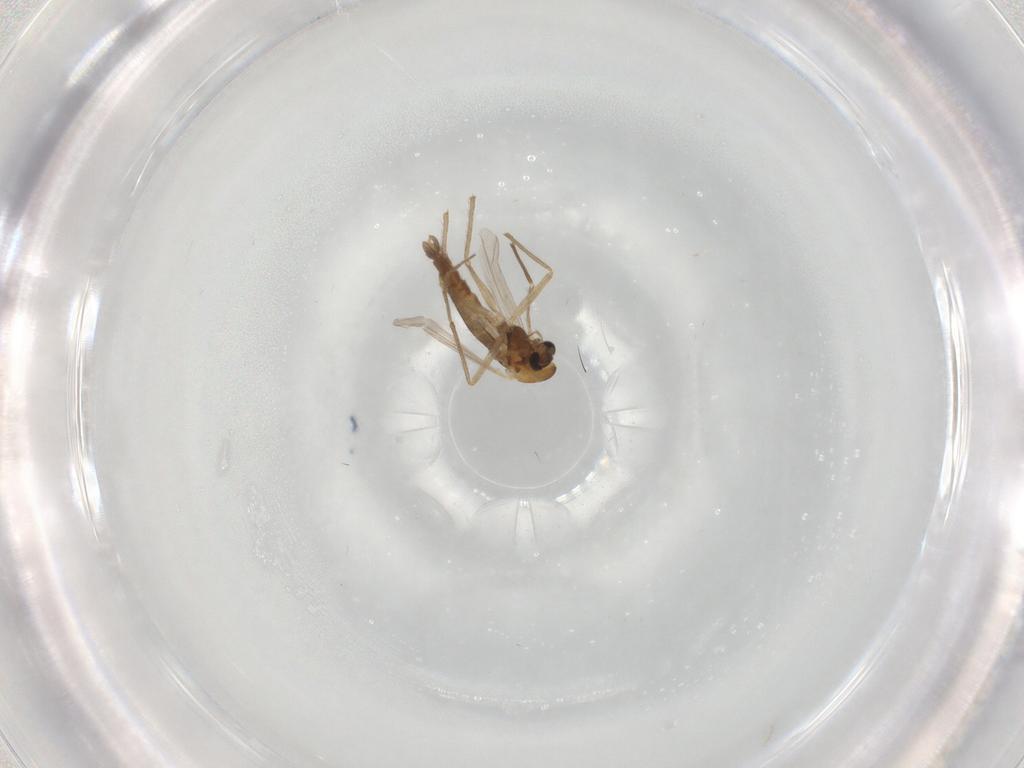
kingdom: Animalia
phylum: Arthropoda
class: Insecta
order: Diptera
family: Chironomidae
